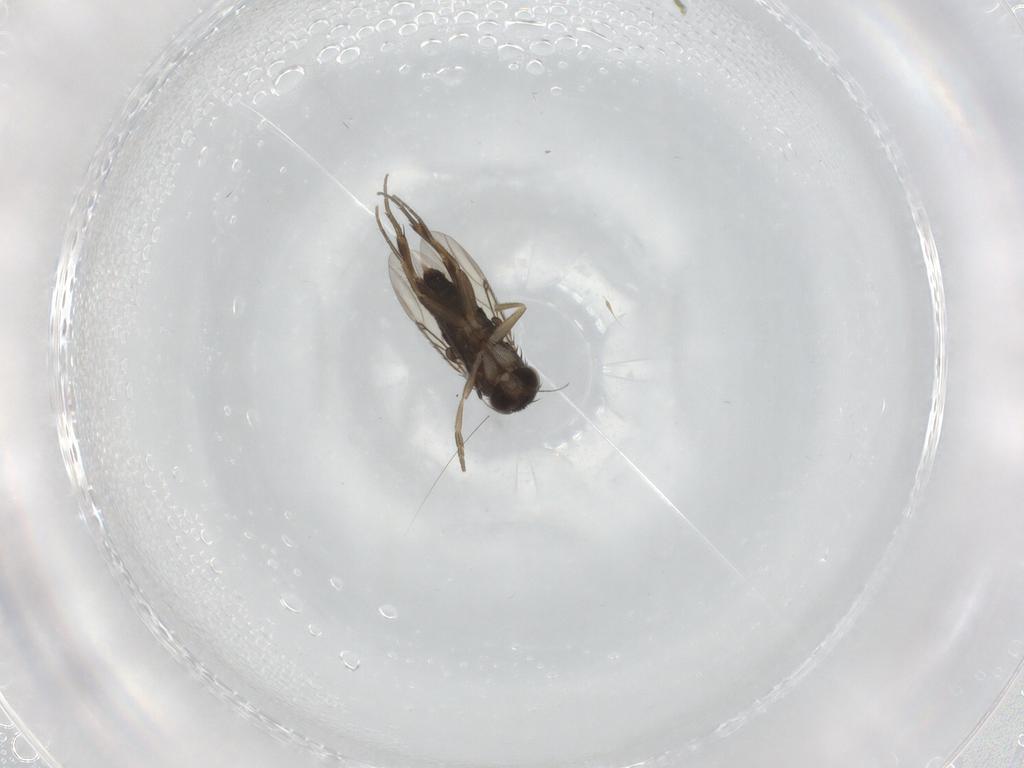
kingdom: Animalia
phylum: Arthropoda
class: Insecta
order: Diptera
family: Phoridae
